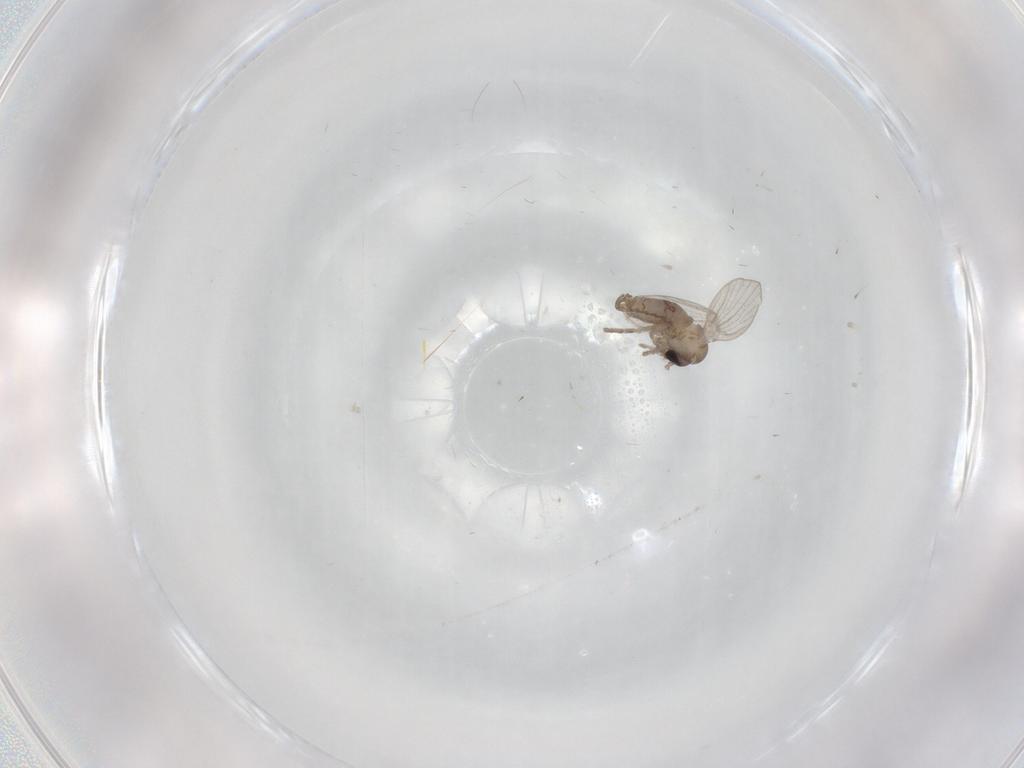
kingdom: Animalia
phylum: Arthropoda
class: Insecta
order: Diptera
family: Psychodidae
